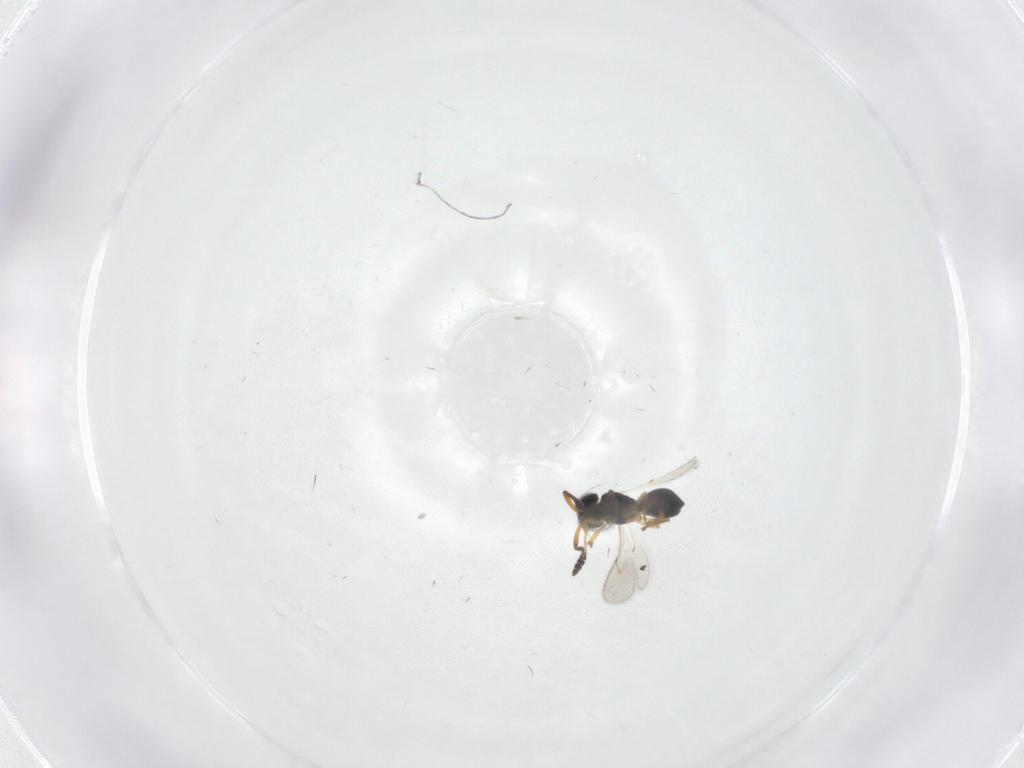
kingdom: Animalia
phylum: Arthropoda
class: Insecta
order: Hymenoptera
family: Scelionidae
